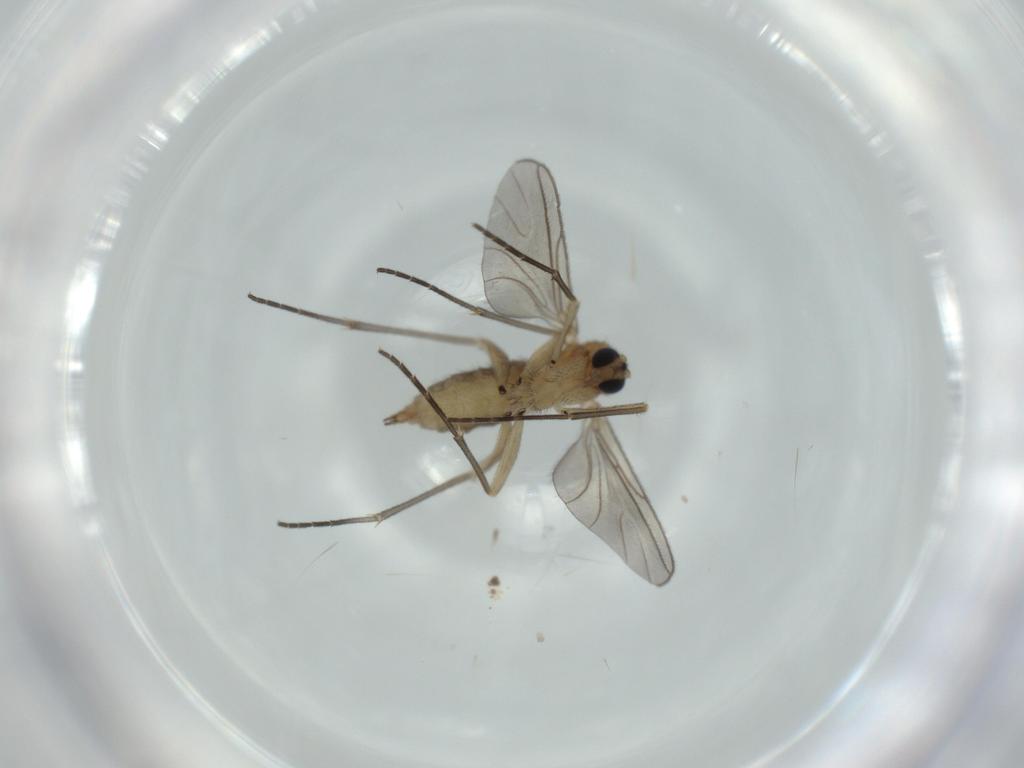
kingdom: Animalia
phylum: Arthropoda
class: Insecta
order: Diptera
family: Sciaridae
